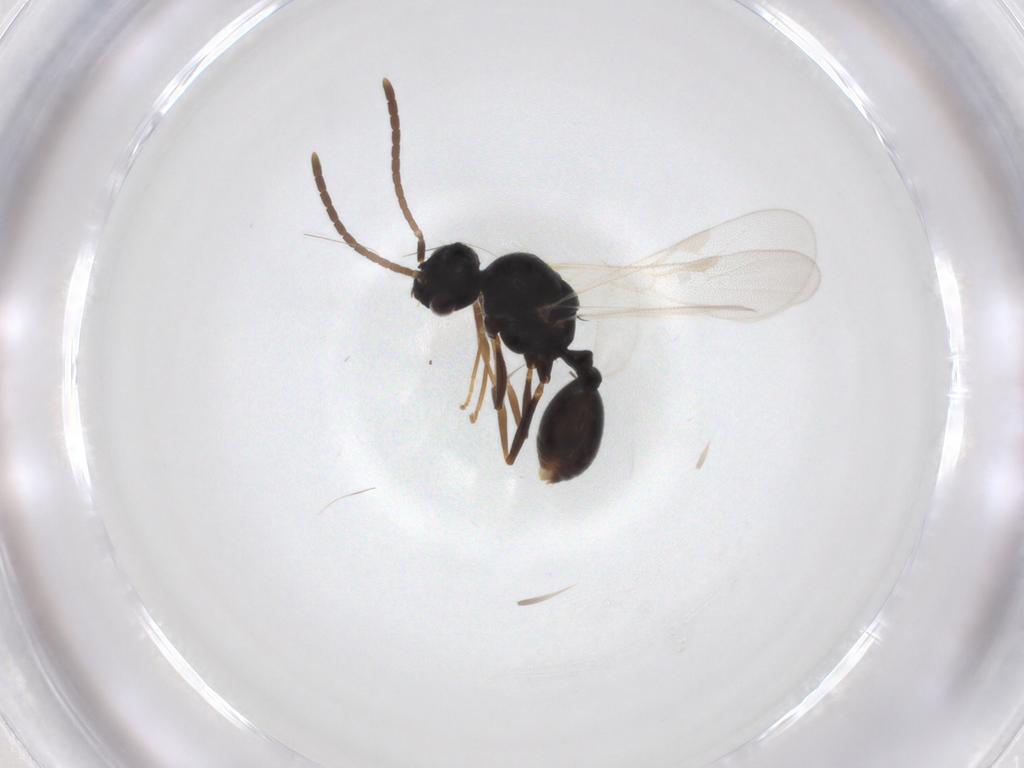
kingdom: Animalia
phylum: Arthropoda
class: Insecta
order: Hymenoptera
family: Formicidae
